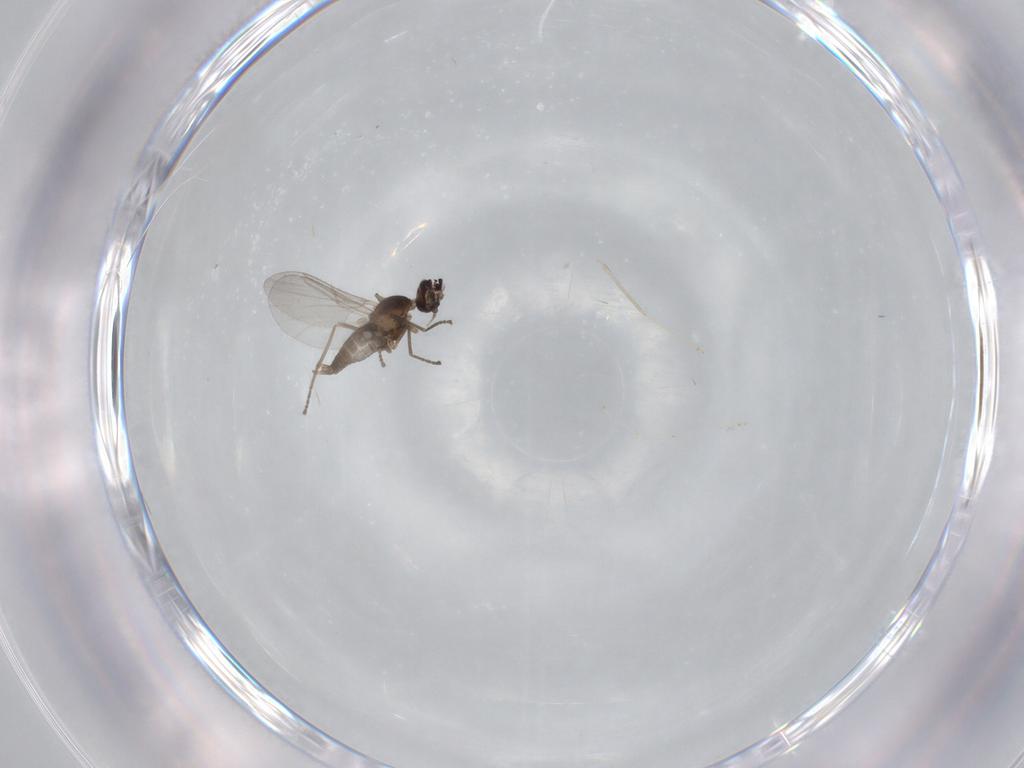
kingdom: Animalia
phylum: Arthropoda
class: Insecta
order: Diptera
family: Cecidomyiidae
